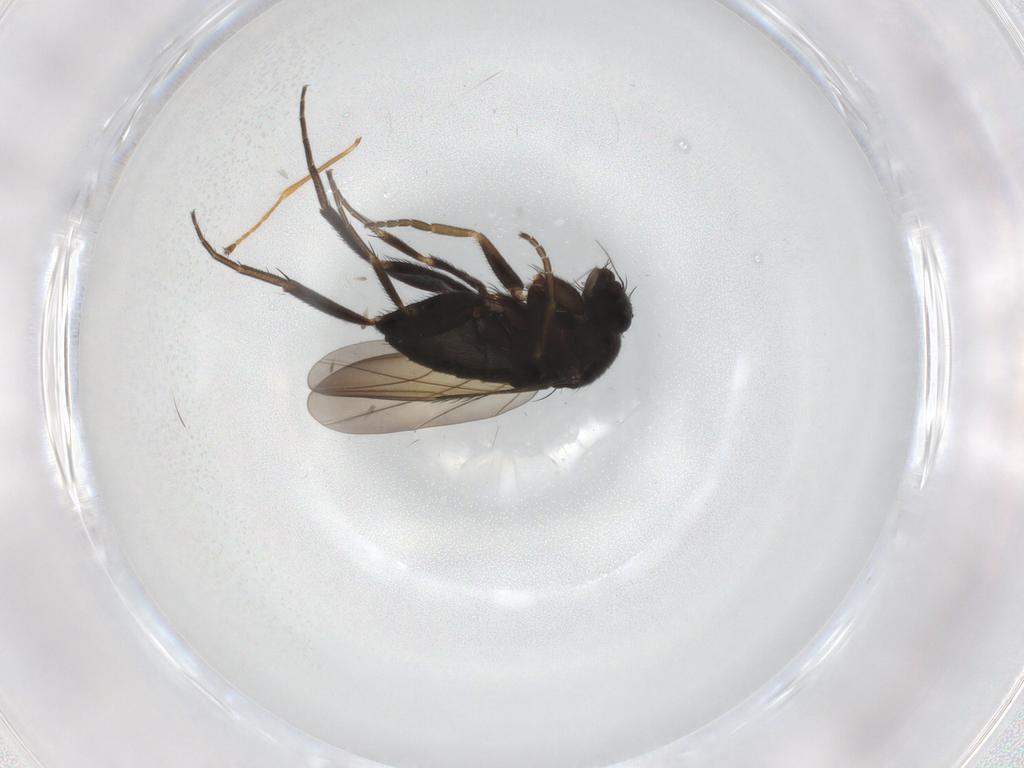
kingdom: Animalia
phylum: Arthropoda
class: Insecta
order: Diptera
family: Phoridae
